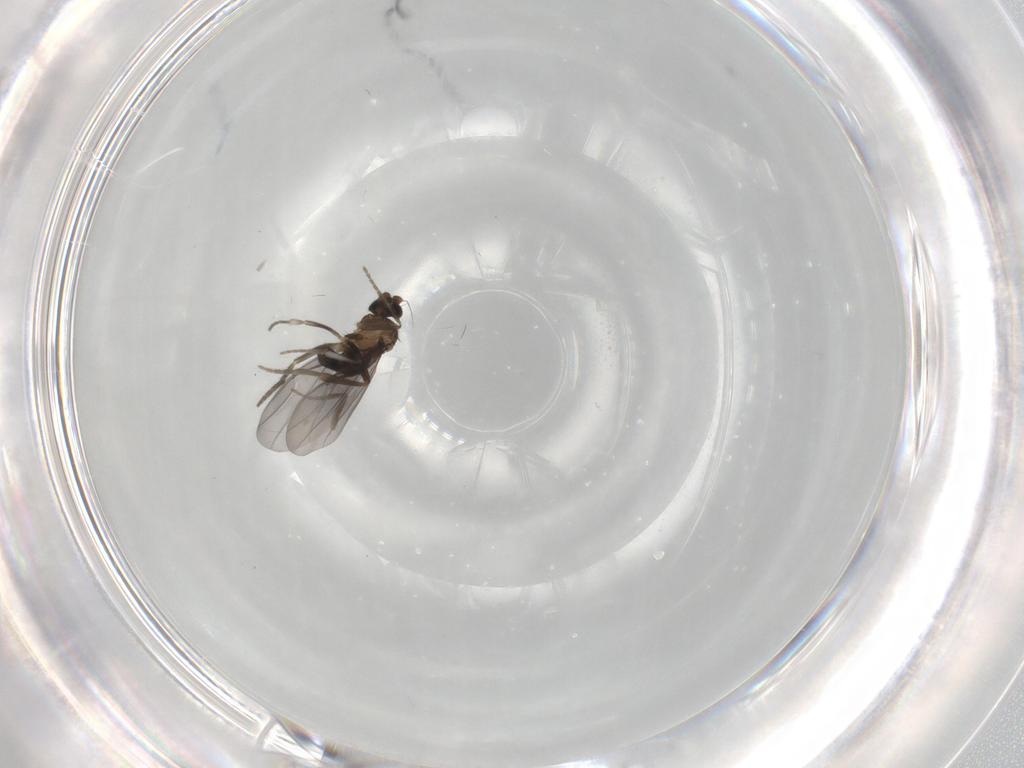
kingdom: Animalia
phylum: Arthropoda
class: Insecta
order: Diptera
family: Phoridae
